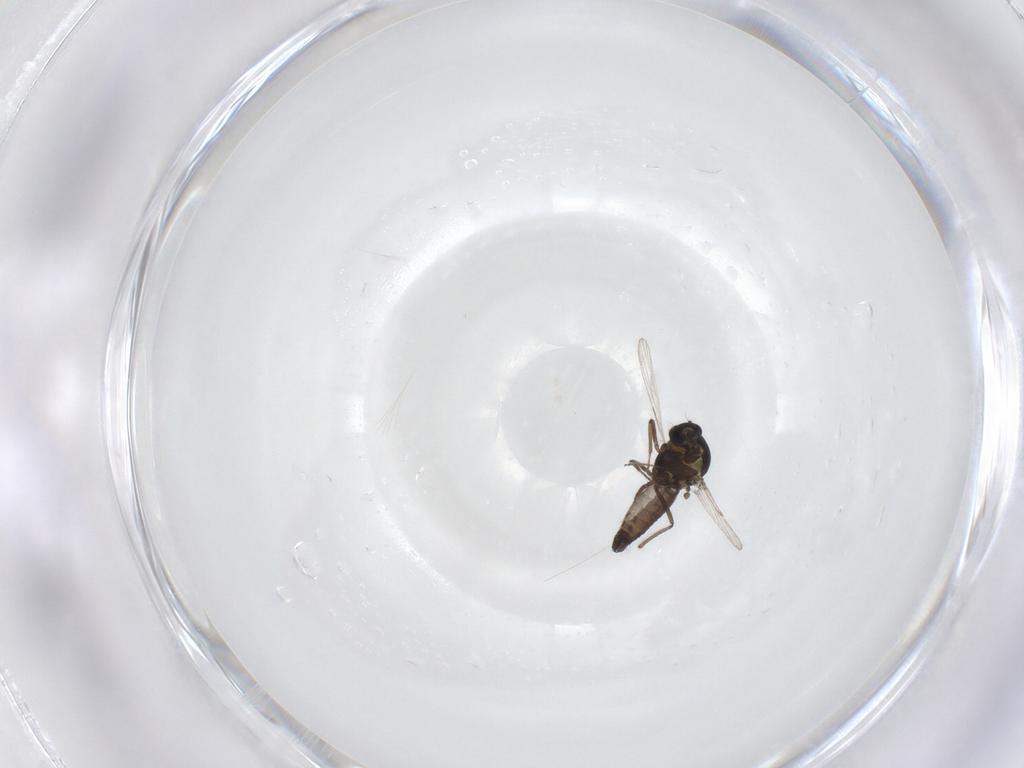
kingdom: Animalia
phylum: Arthropoda
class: Insecta
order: Diptera
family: Ceratopogonidae
